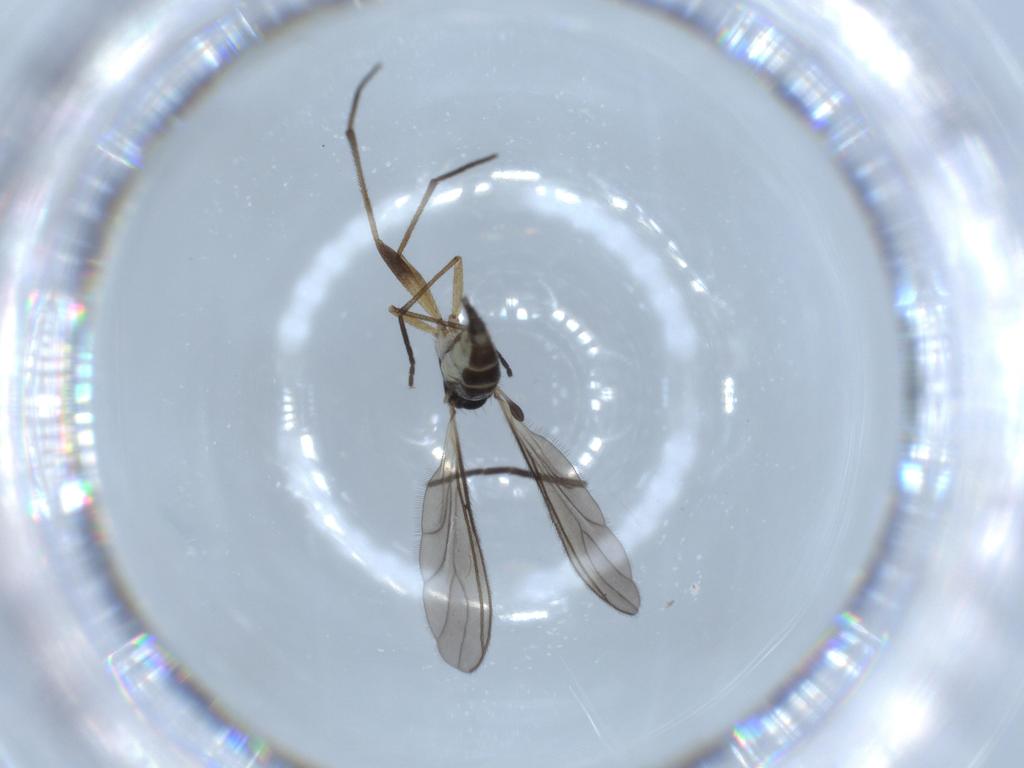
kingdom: Animalia
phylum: Arthropoda
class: Insecta
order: Diptera
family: Sciaridae
